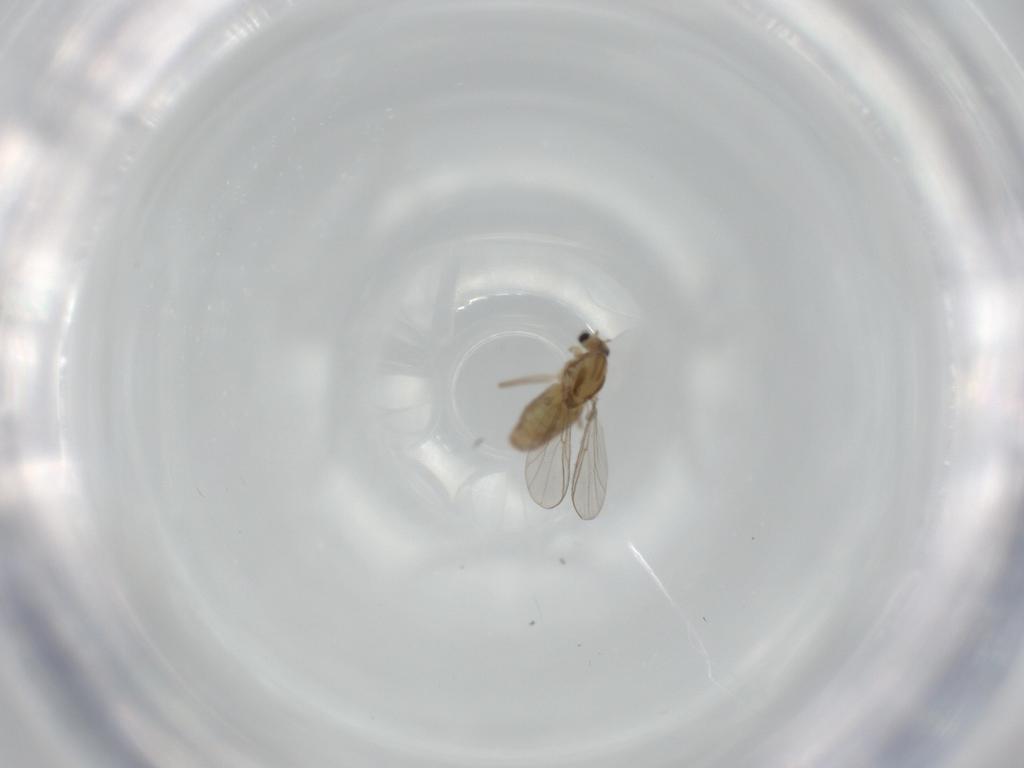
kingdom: Animalia
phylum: Arthropoda
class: Insecta
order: Diptera
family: Chironomidae
